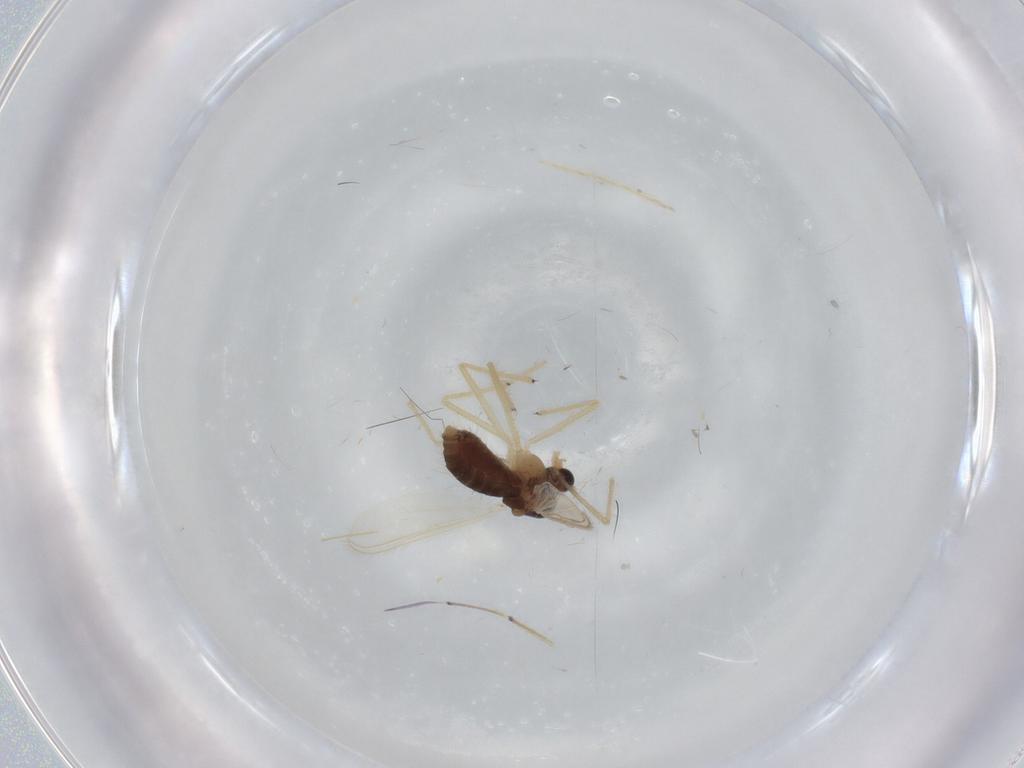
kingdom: Animalia
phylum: Arthropoda
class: Insecta
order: Diptera
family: Chironomidae
